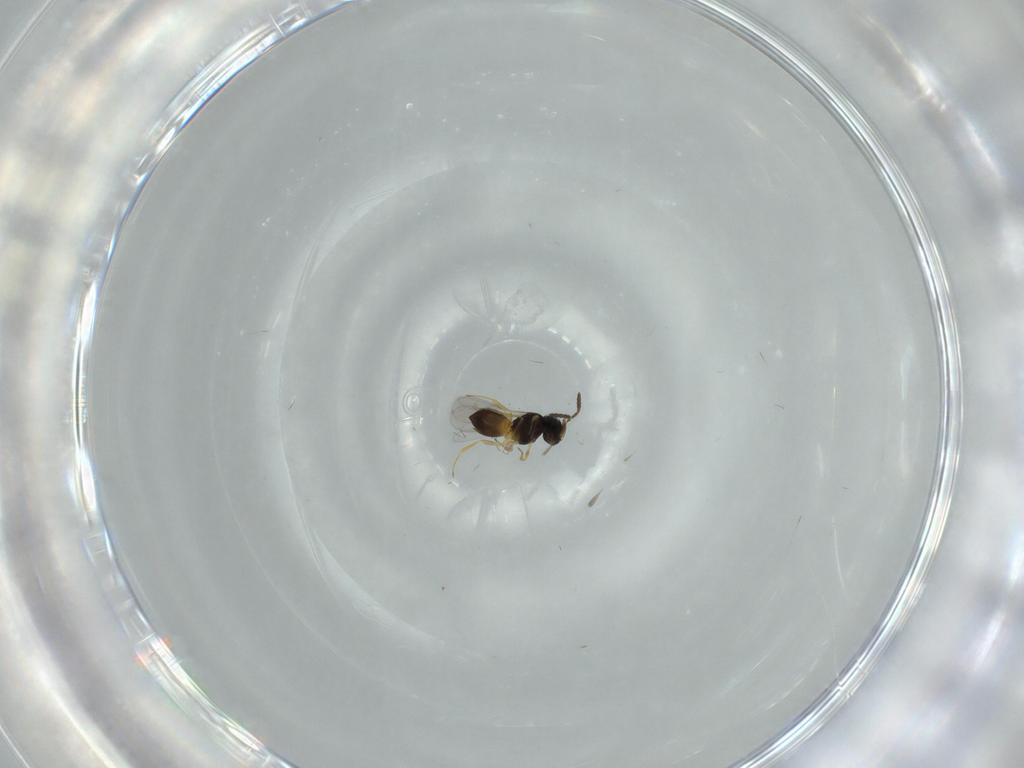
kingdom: Animalia
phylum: Arthropoda
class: Insecta
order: Hymenoptera
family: Scelionidae
